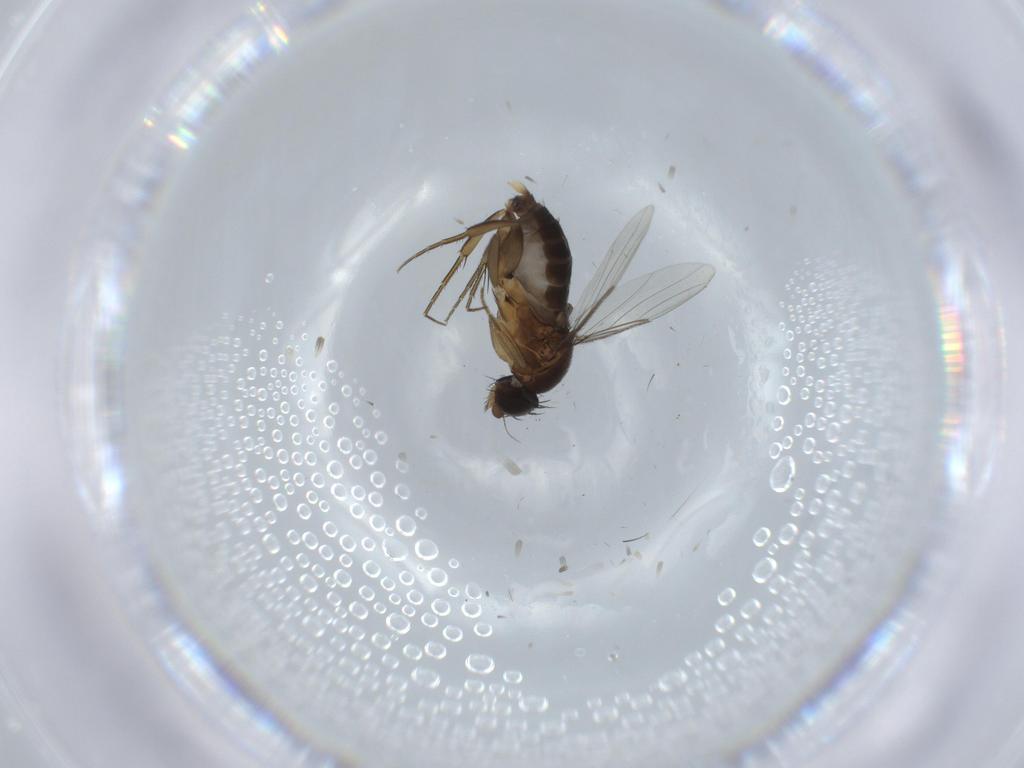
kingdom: Animalia
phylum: Arthropoda
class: Insecta
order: Diptera
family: Phoridae
